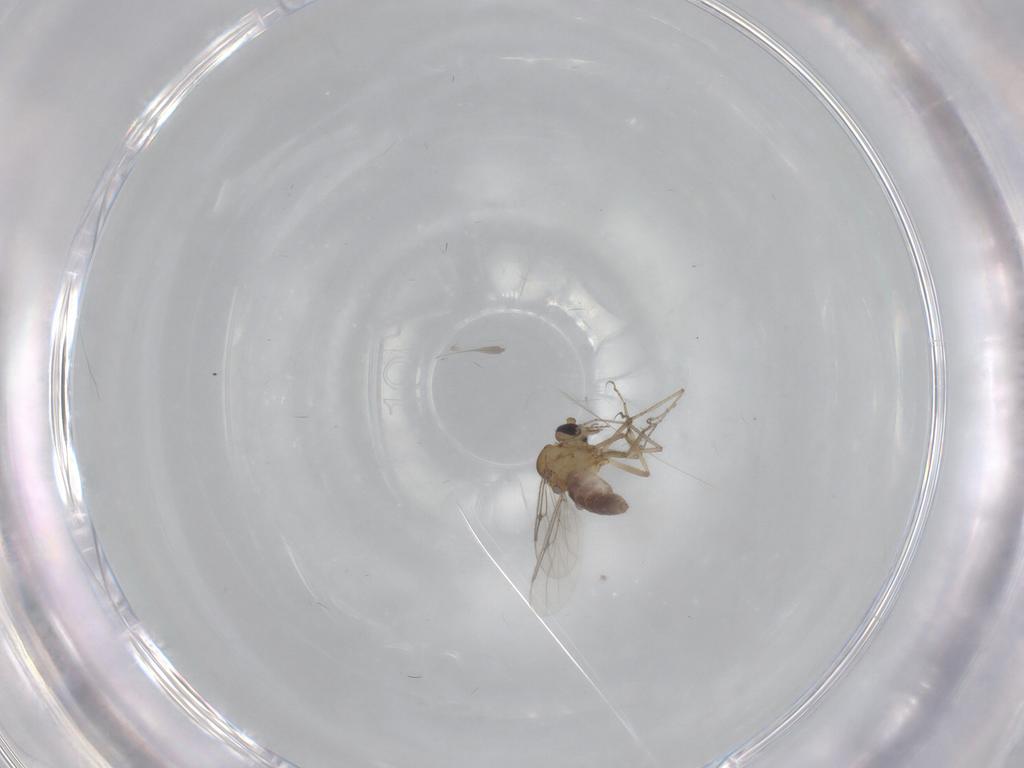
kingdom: Animalia
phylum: Arthropoda
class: Insecta
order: Diptera
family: Ceratopogonidae
